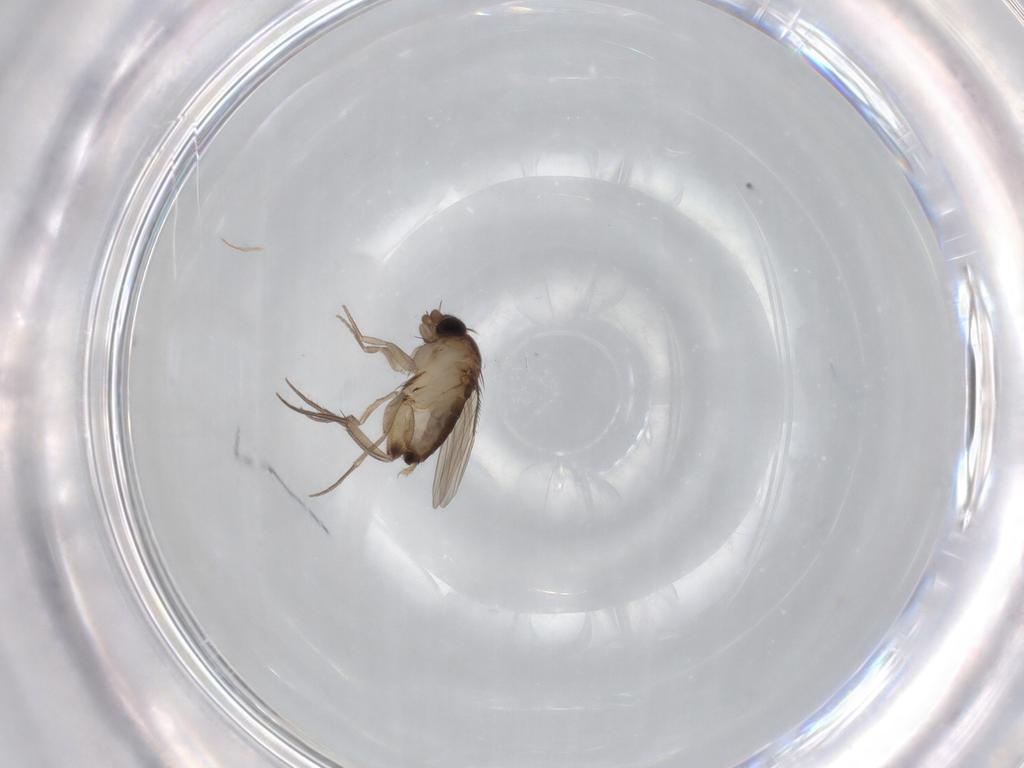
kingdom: Animalia
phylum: Arthropoda
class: Insecta
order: Diptera
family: Phoridae
